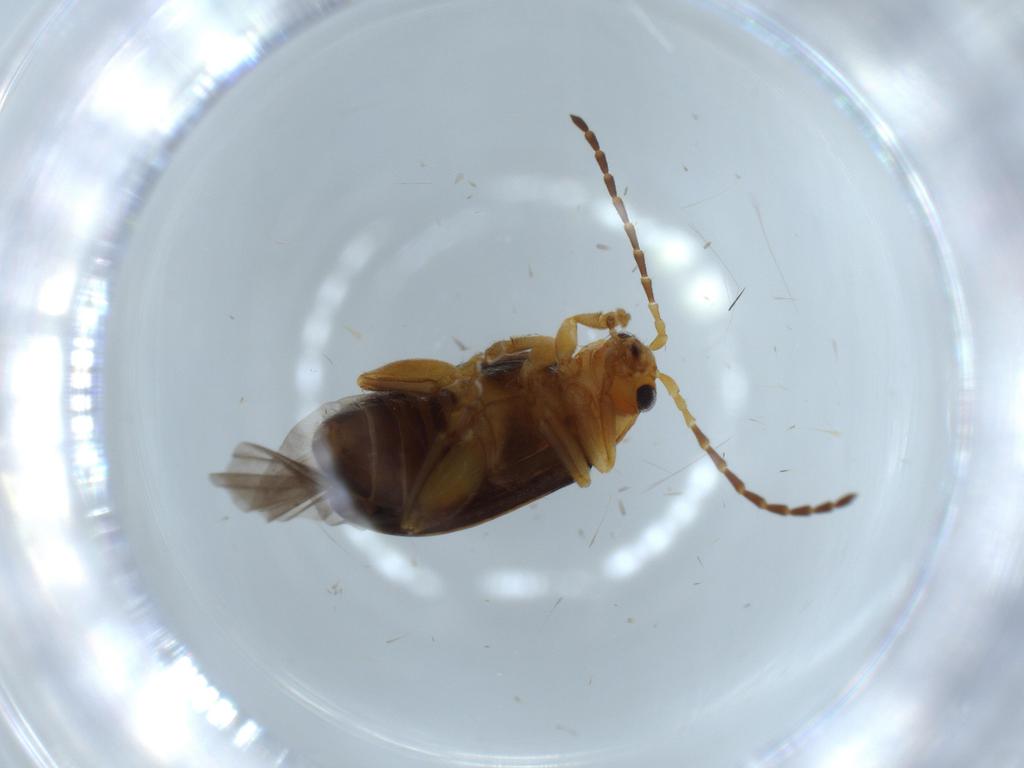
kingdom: Animalia
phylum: Arthropoda
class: Insecta
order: Coleoptera
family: Chrysomelidae
